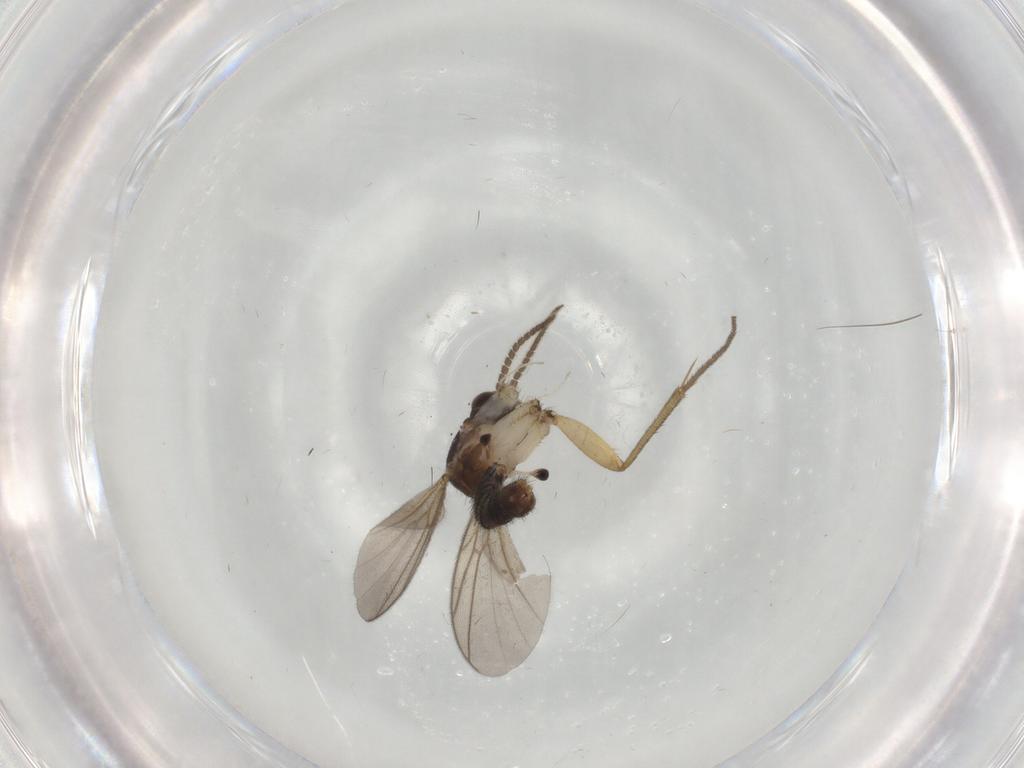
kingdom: Animalia
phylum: Arthropoda
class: Insecta
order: Diptera
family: Mycetophilidae
